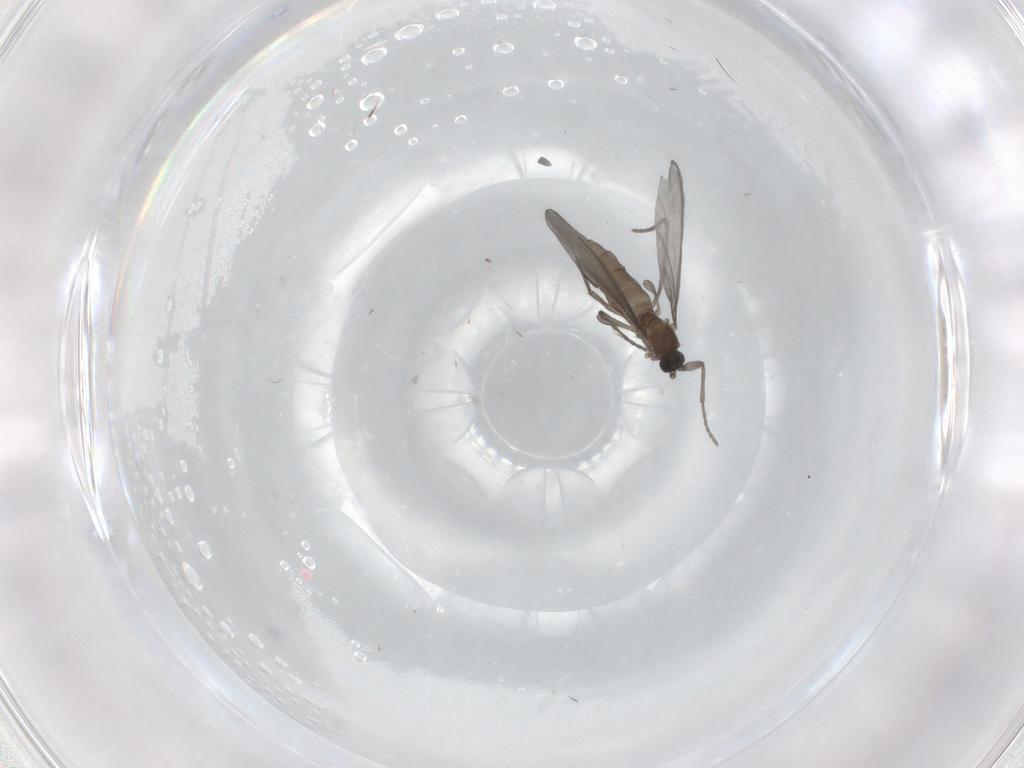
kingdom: Animalia
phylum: Arthropoda
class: Insecta
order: Diptera
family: Sciaridae
